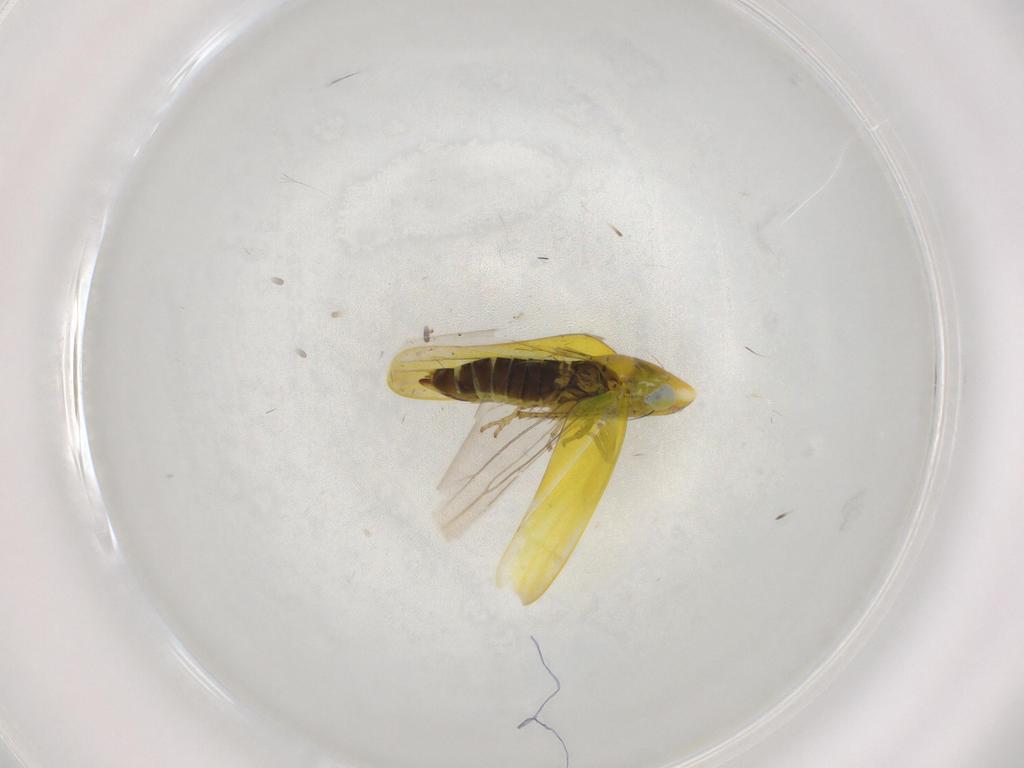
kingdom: Animalia
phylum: Arthropoda
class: Insecta
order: Hemiptera
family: Cicadellidae
